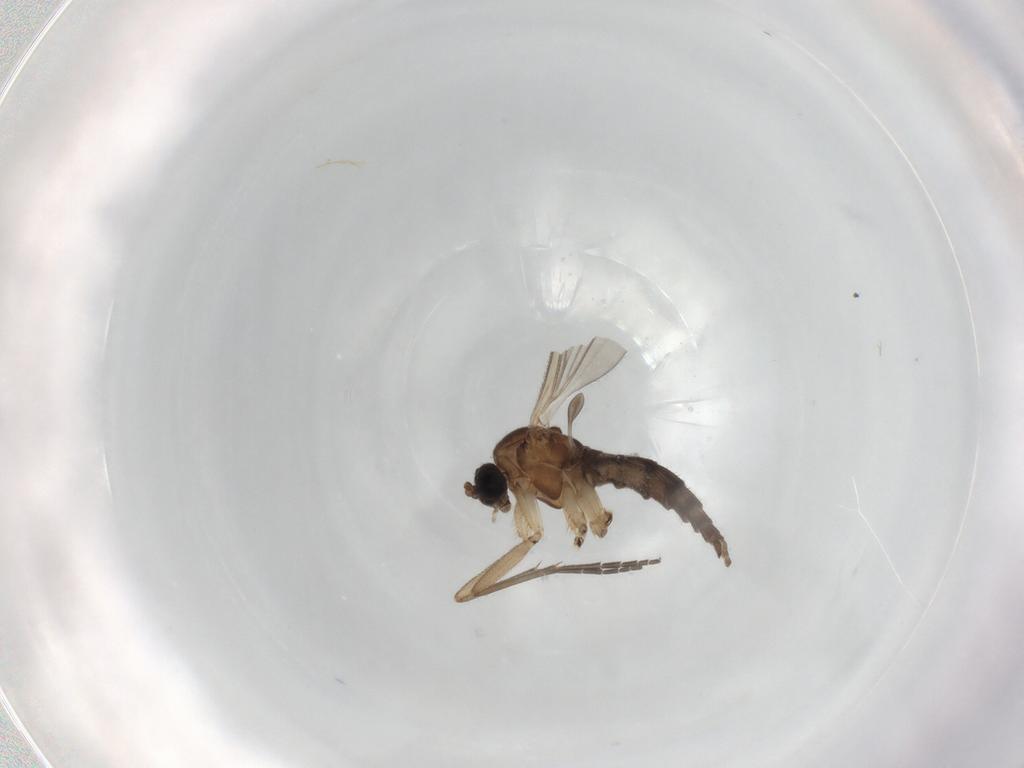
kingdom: Animalia
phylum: Arthropoda
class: Insecta
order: Diptera
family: Sciaridae
